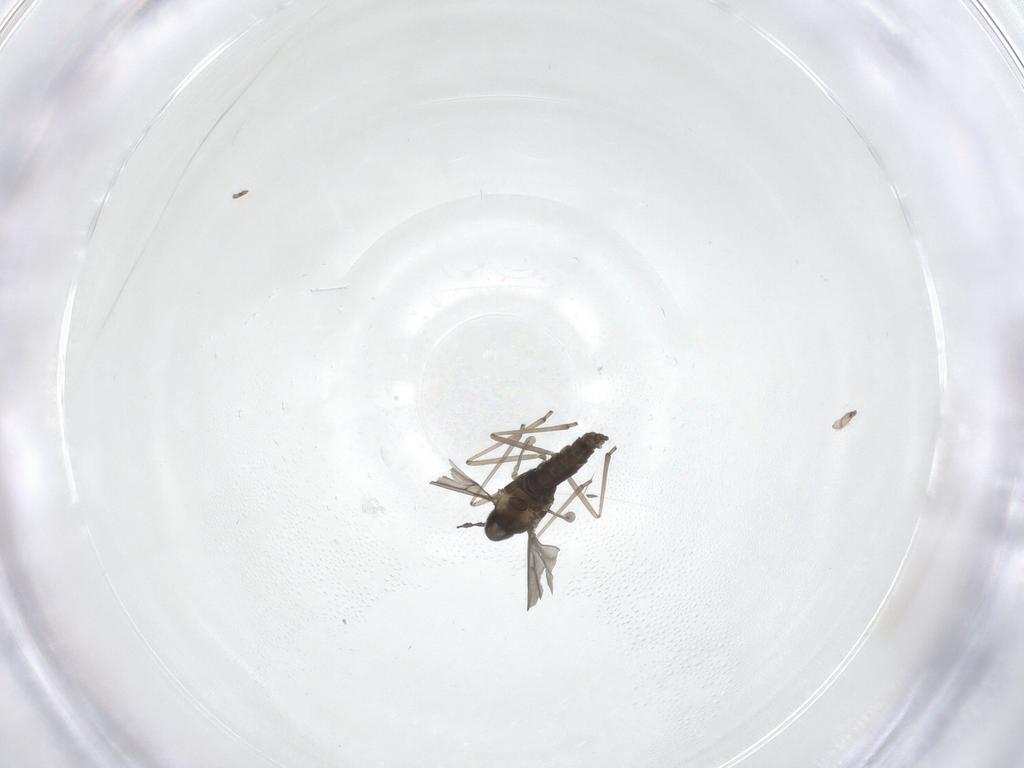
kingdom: Animalia
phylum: Arthropoda
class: Insecta
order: Diptera
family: Cecidomyiidae
